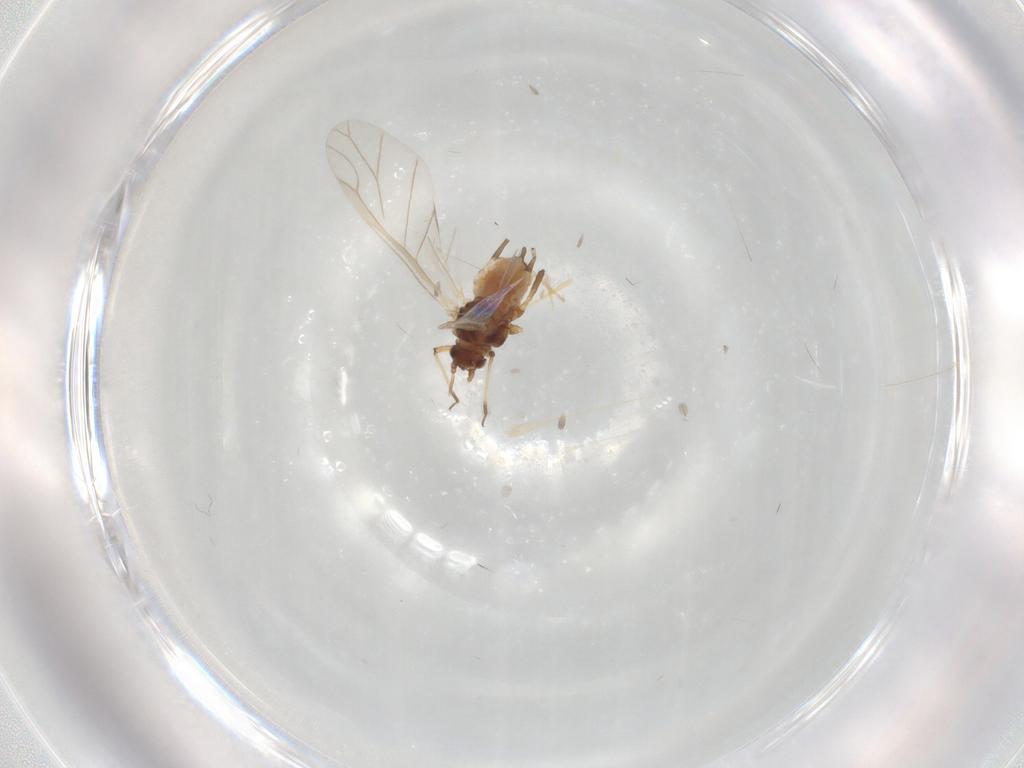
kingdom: Animalia
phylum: Arthropoda
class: Insecta
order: Hemiptera
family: Aphididae
